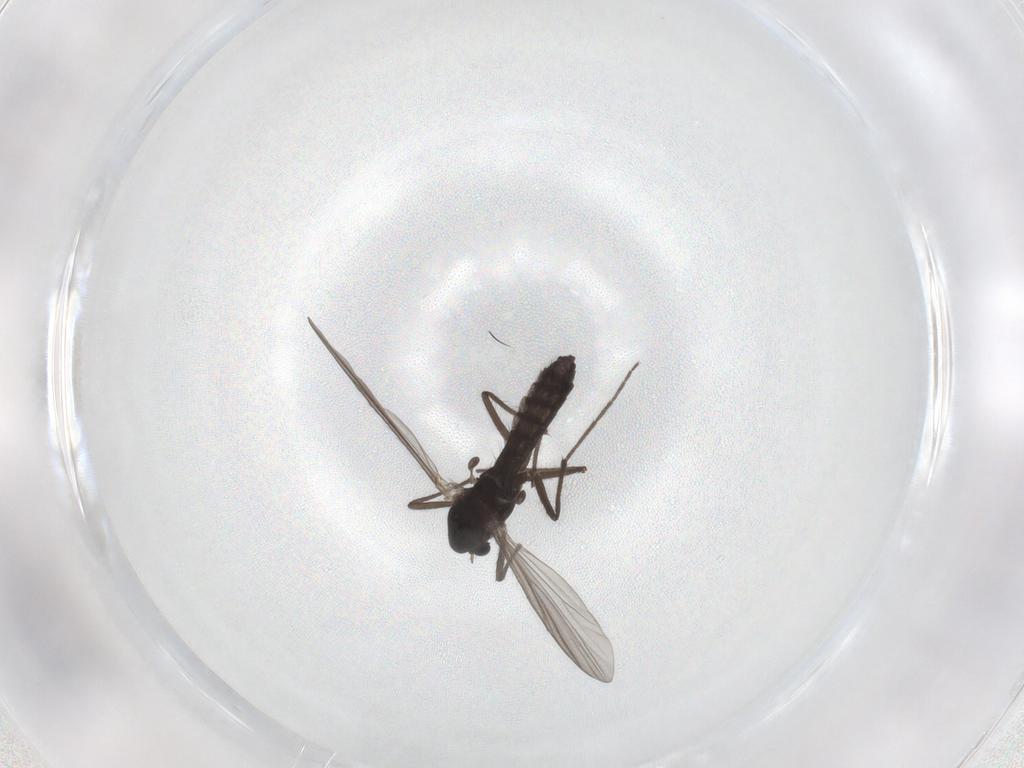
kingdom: Animalia
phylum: Arthropoda
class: Insecta
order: Diptera
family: Chironomidae
